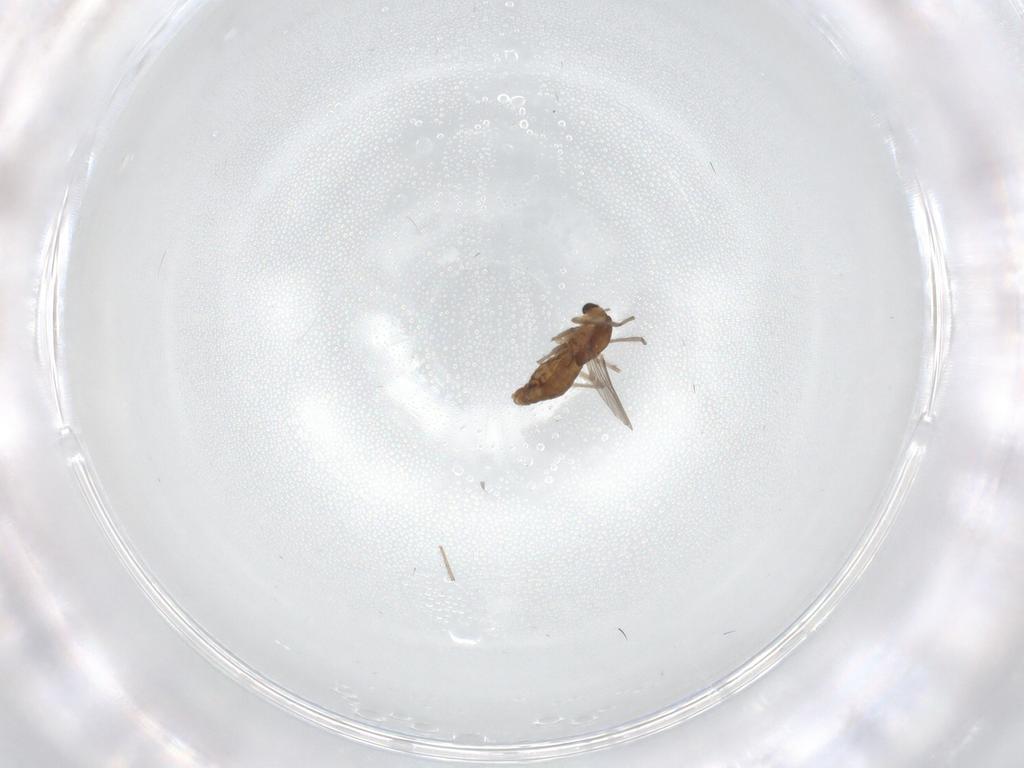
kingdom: Animalia
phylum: Arthropoda
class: Insecta
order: Diptera
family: Chironomidae
